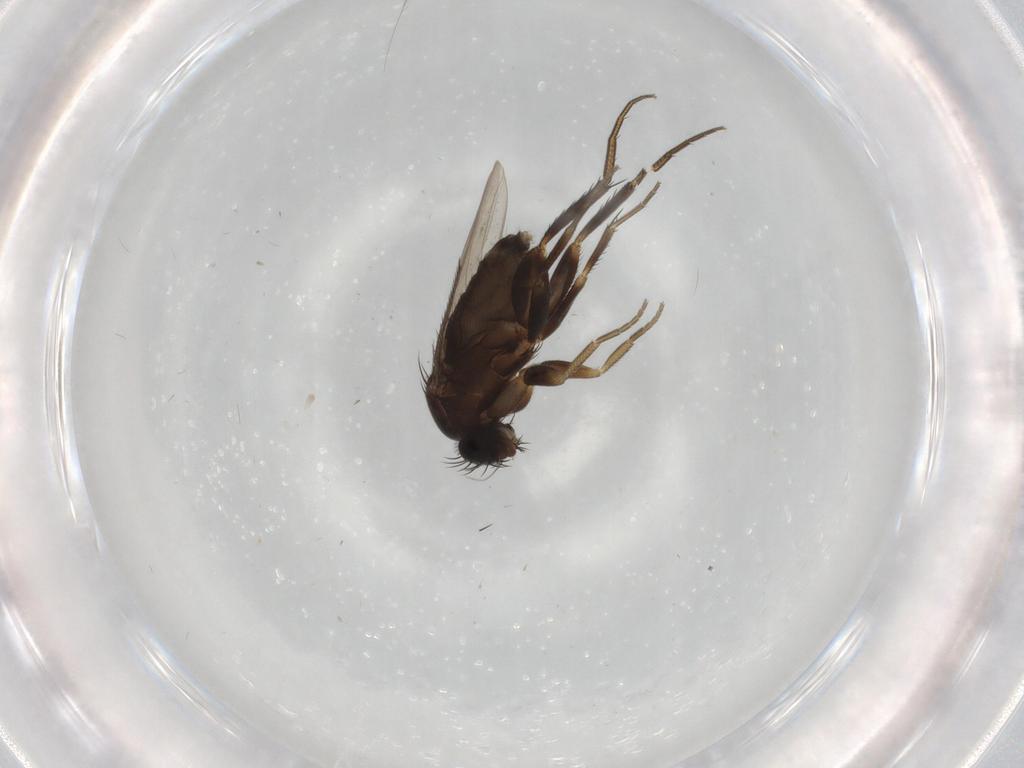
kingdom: Animalia
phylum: Arthropoda
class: Insecta
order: Diptera
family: Phoridae
